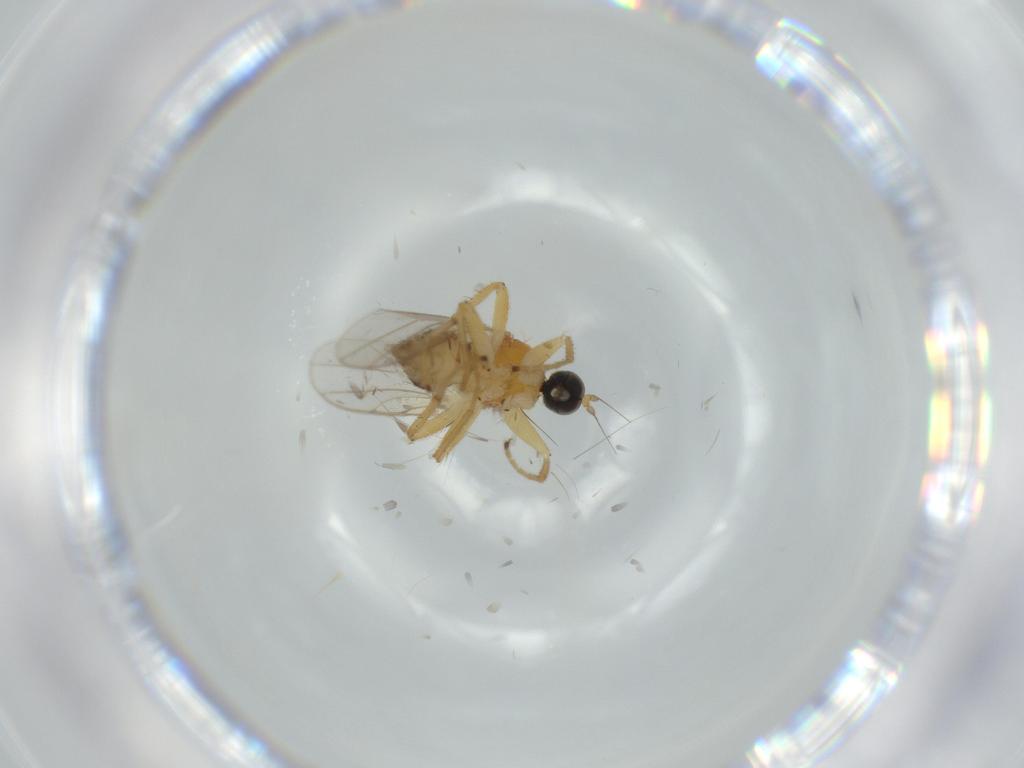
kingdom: Animalia
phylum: Arthropoda
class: Insecta
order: Diptera
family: Hybotidae
